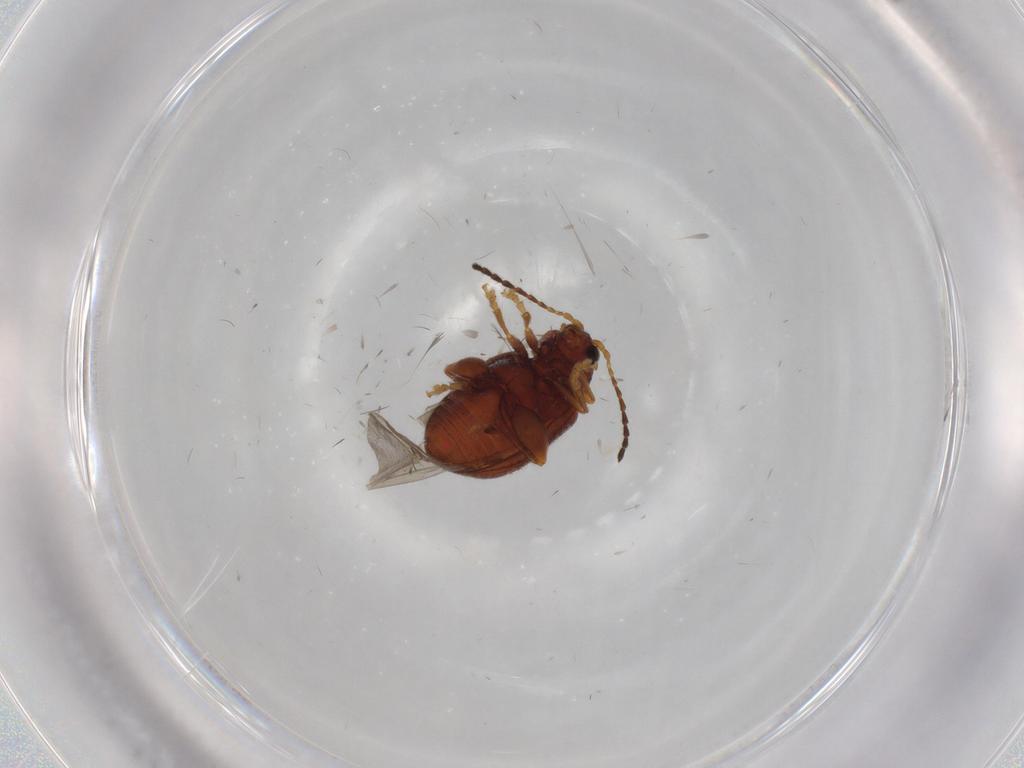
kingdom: Animalia
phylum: Arthropoda
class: Insecta
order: Coleoptera
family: Chrysomelidae
